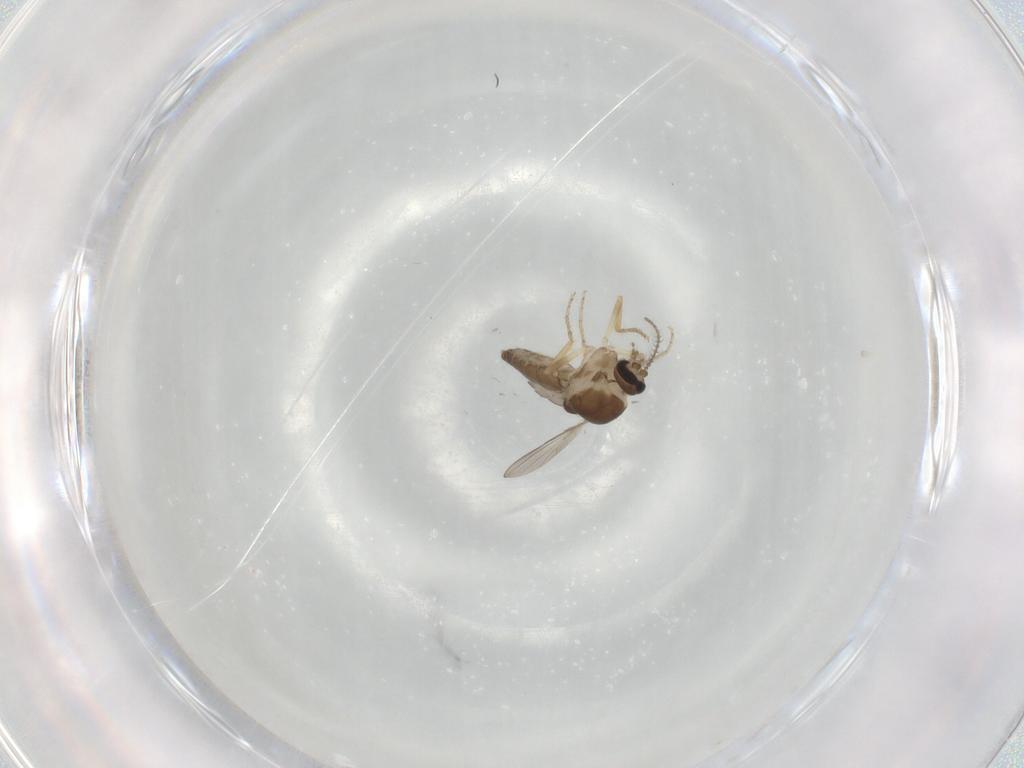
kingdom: Animalia
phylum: Arthropoda
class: Insecta
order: Diptera
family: Ceratopogonidae
